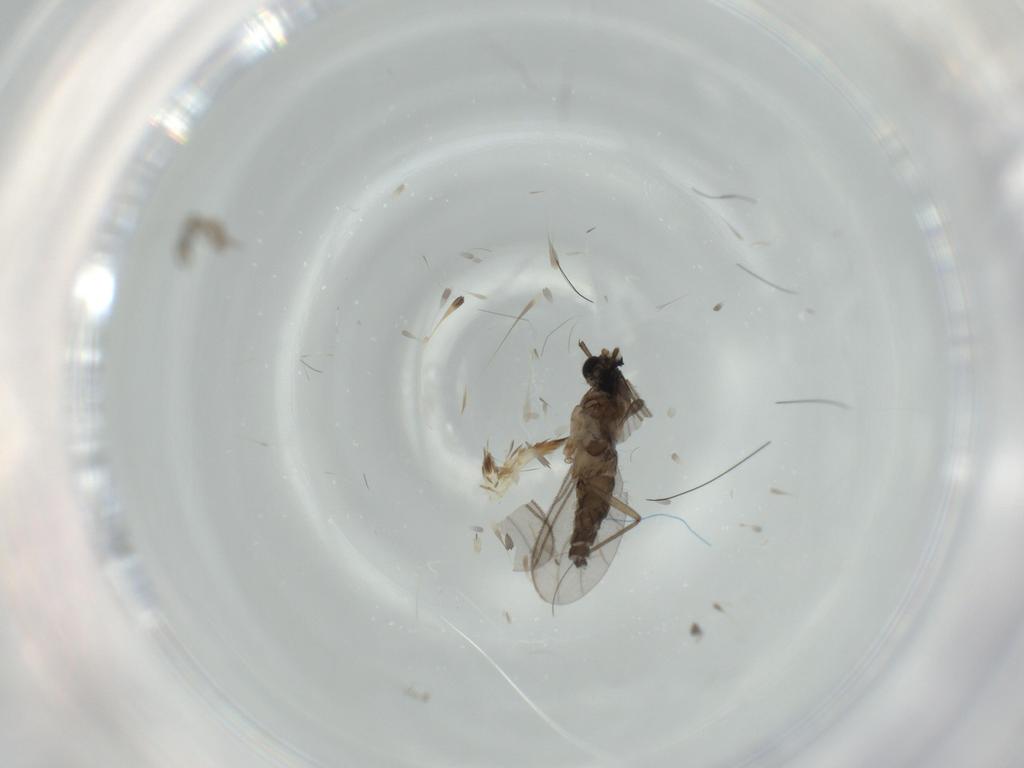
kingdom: Animalia
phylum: Arthropoda
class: Insecta
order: Diptera
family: Sciaridae
